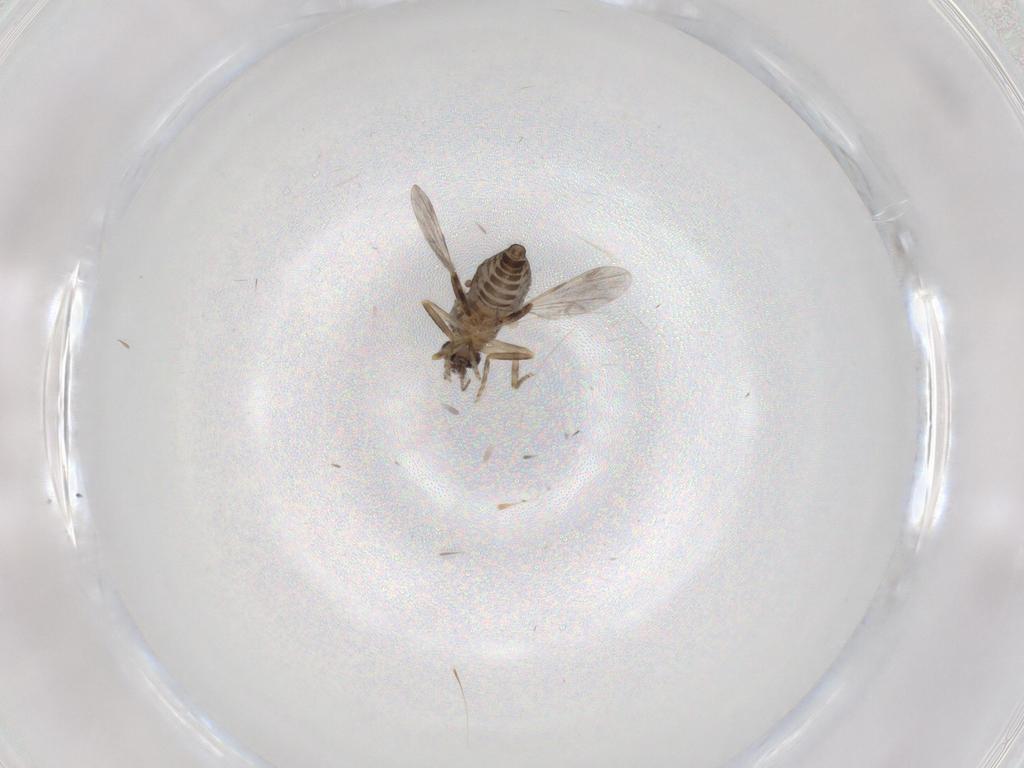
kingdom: Animalia
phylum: Arthropoda
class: Insecta
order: Diptera
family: Ceratopogonidae
